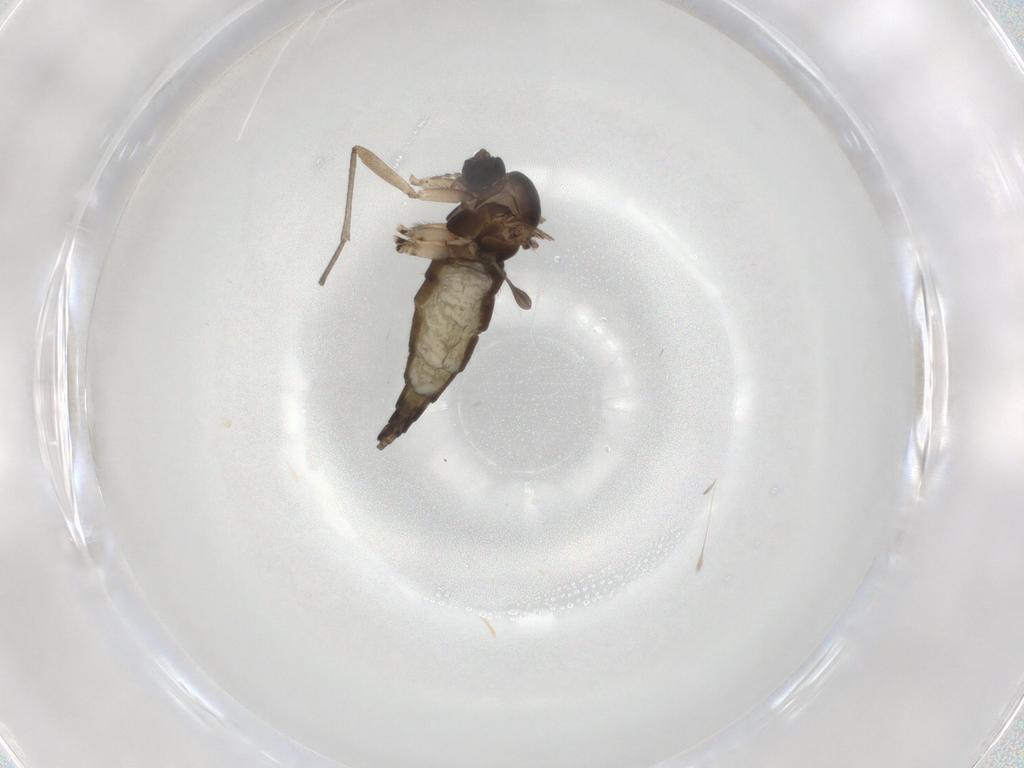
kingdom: Animalia
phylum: Arthropoda
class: Insecta
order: Diptera
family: Sciaridae
